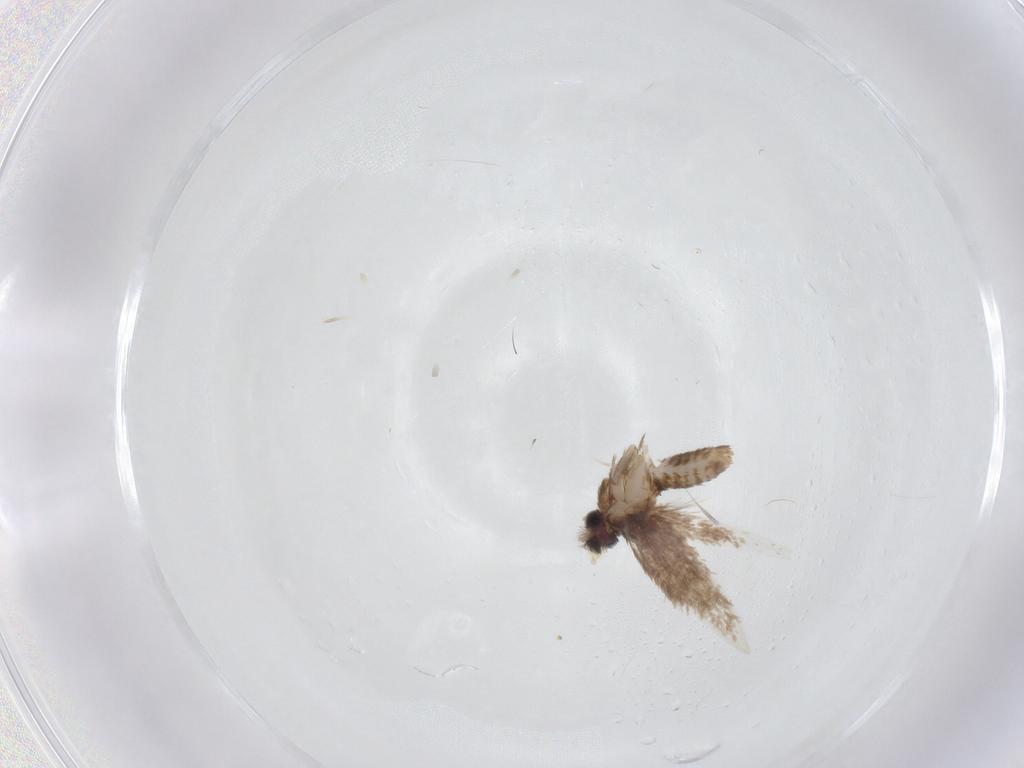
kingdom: Animalia
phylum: Arthropoda
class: Insecta
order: Lepidoptera
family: Nepticulidae
